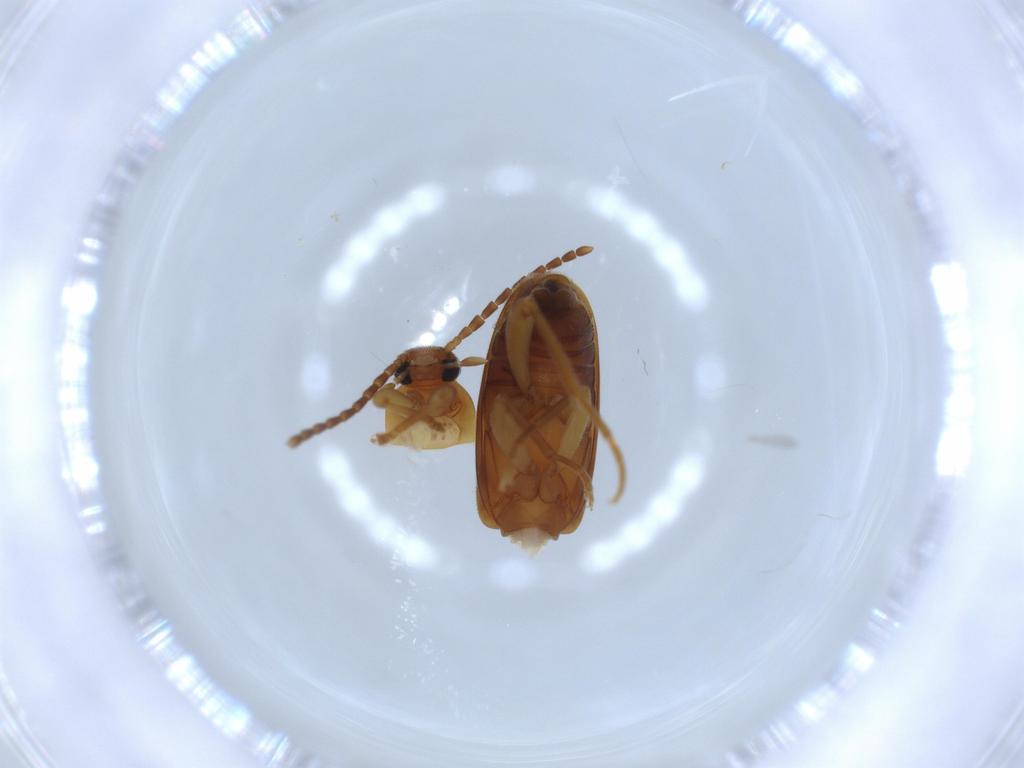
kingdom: Animalia
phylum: Arthropoda
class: Insecta
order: Coleoptera
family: Scraptiidae
